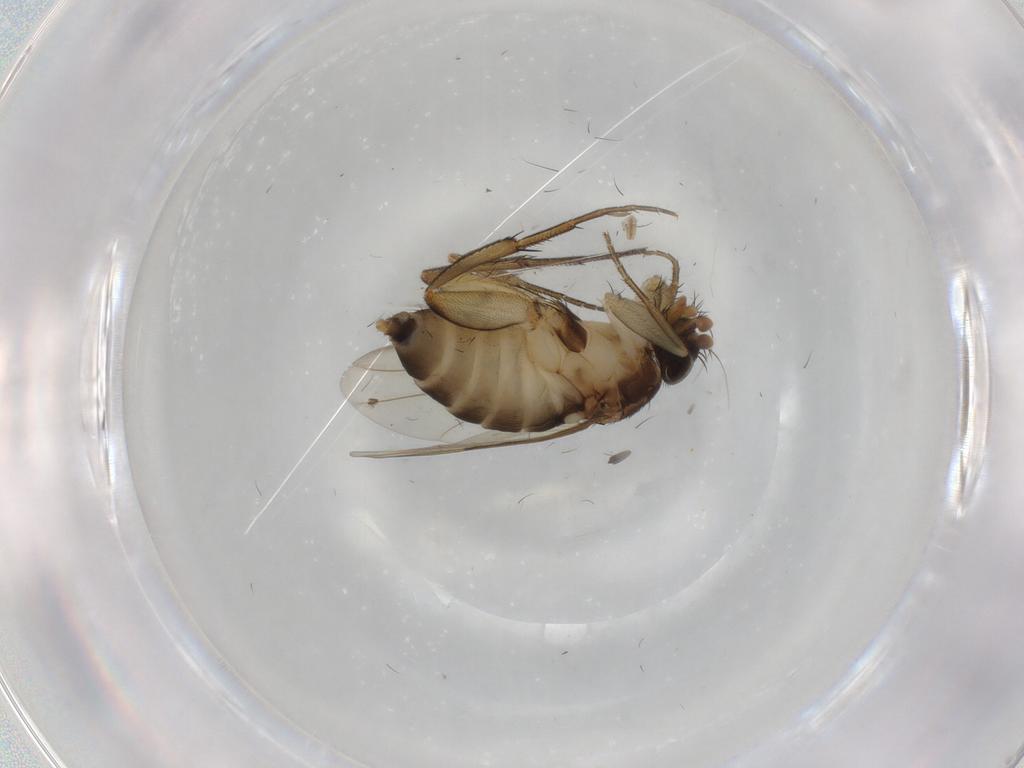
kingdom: Animalia
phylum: Arthropoda
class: Insecta
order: Diptera
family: Phoridae
